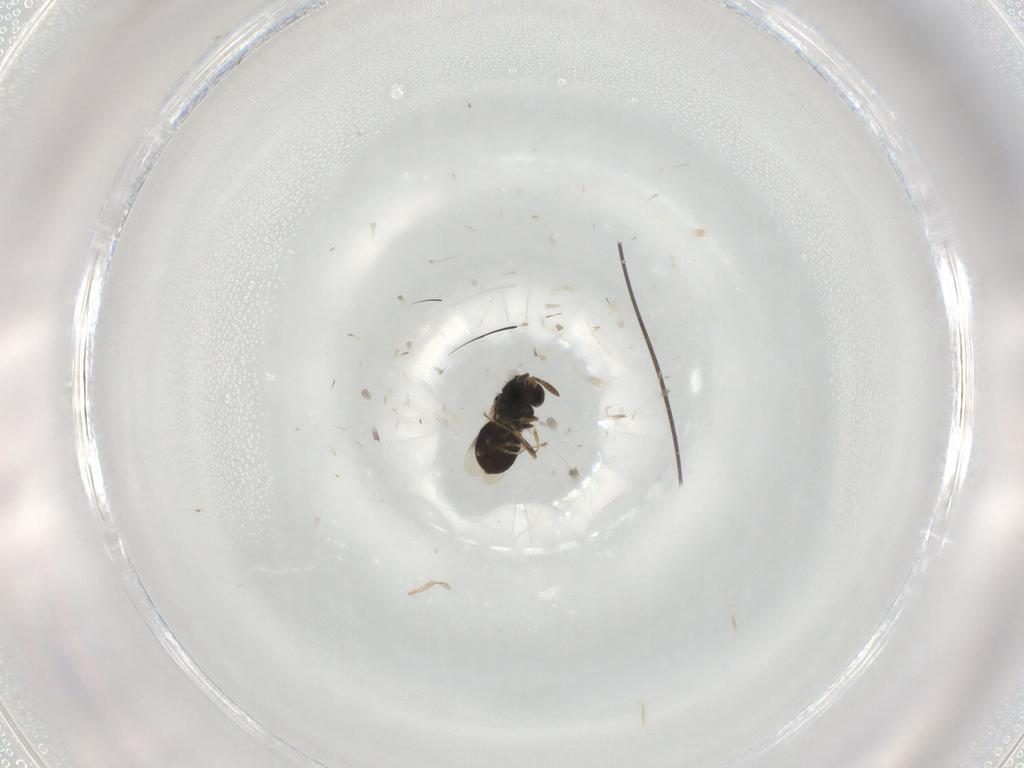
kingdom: Animalia
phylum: Arthropoda
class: Insecta
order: Hymenoptera
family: Scelionidae
